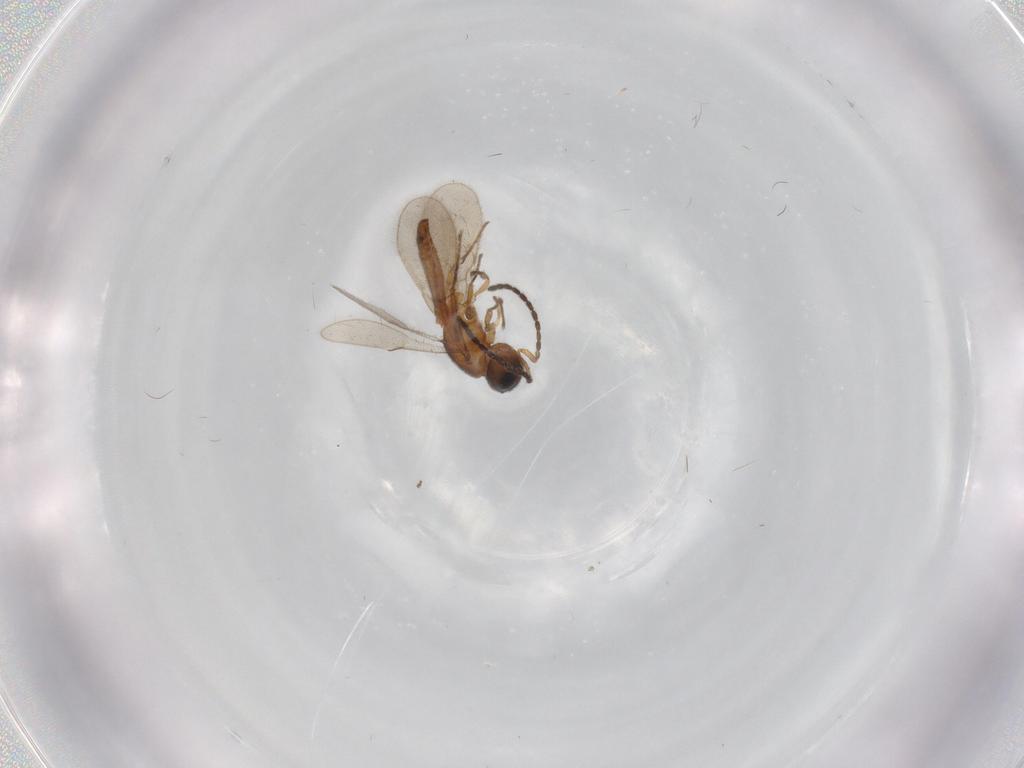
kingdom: Animalia
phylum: Arthropoda
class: Insecta
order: Hymenoptera
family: Scelionidae
